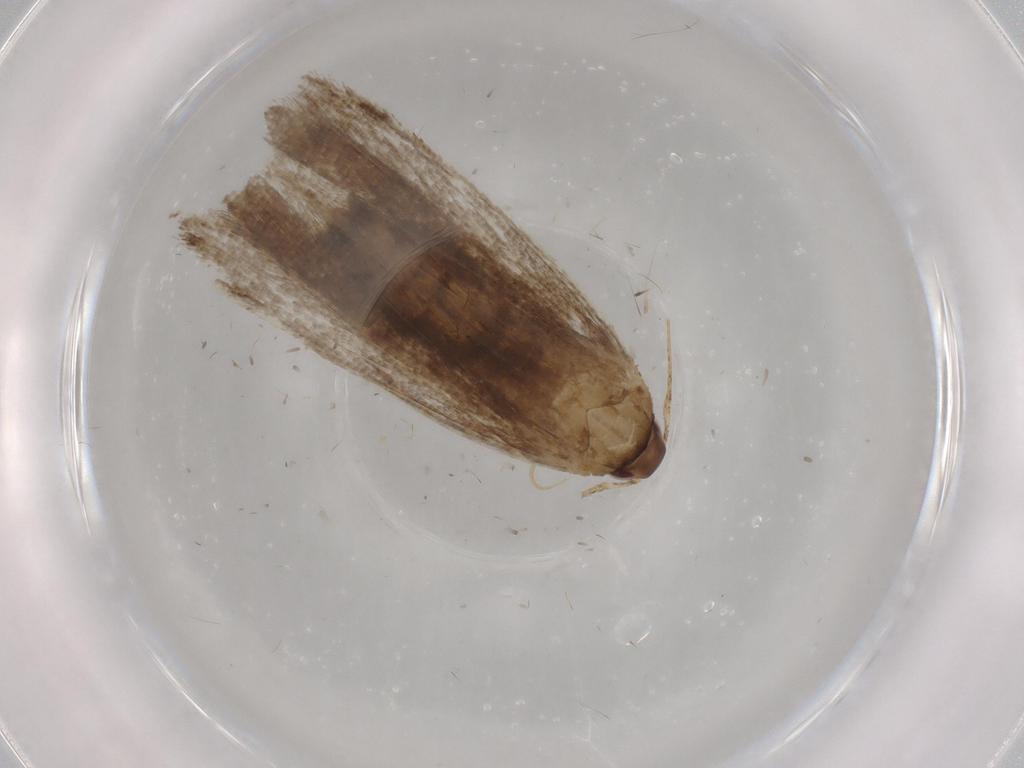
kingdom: Animalia
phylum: Arthropoda
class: Insecta
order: Lepidoptera
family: Gelechiidae
